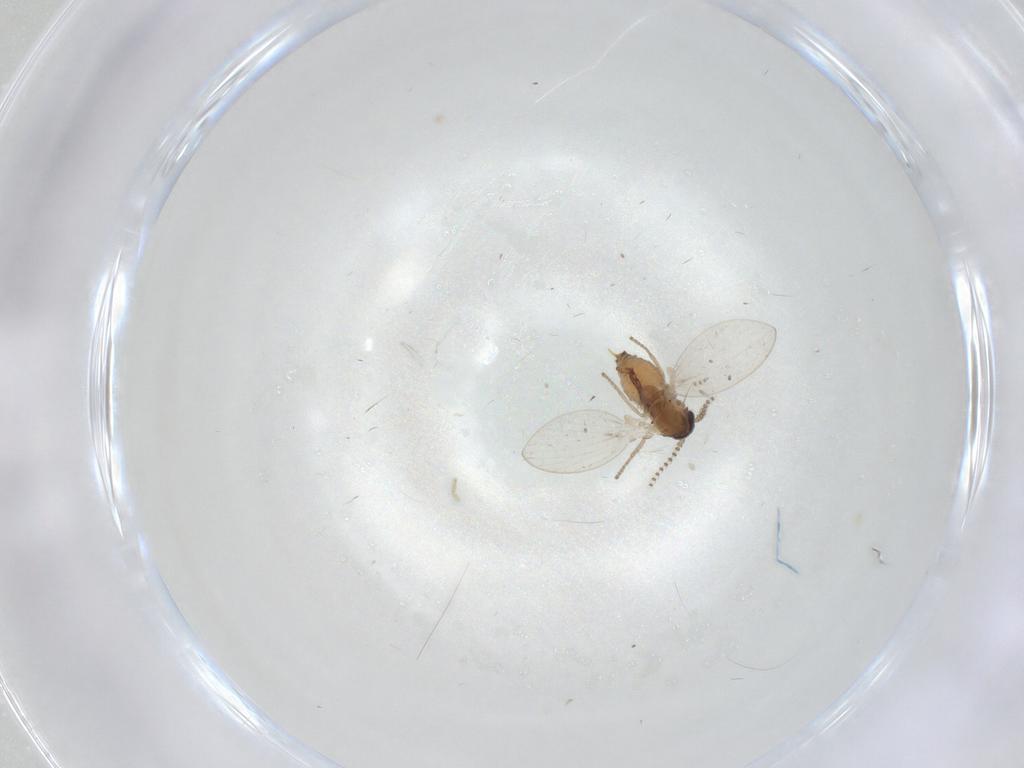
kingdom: Animalia
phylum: Arthropoda
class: Insecta
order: Diptera
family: Psychodidae
